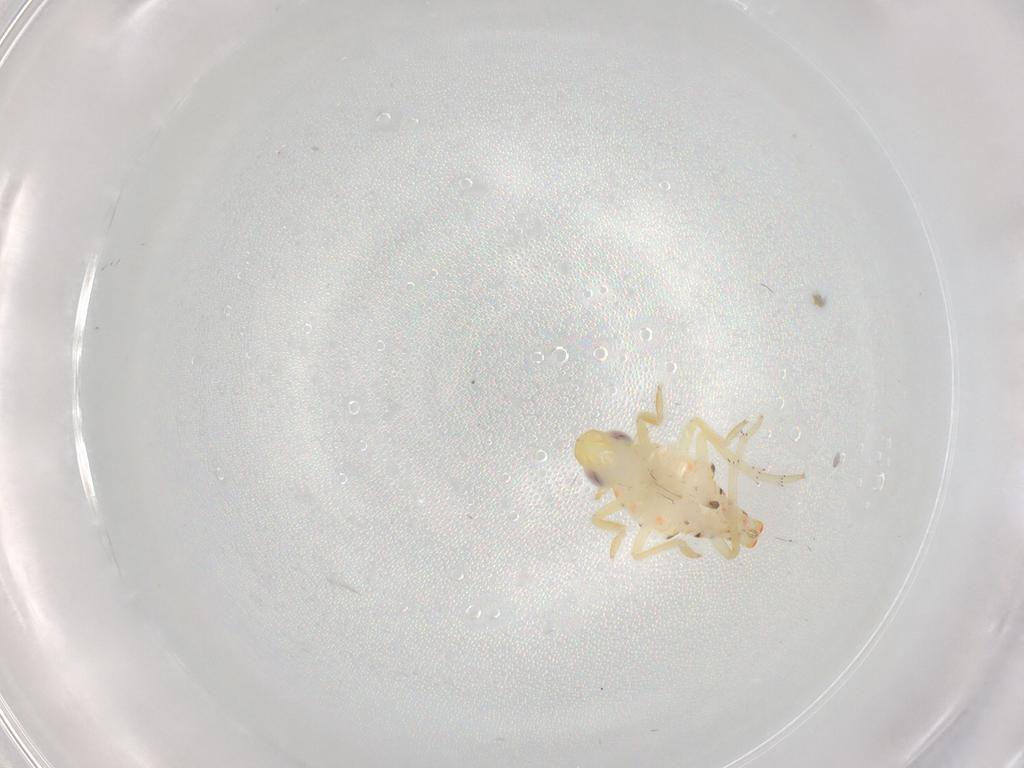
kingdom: Animalia
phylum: Arthropoda
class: Insecta
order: Hemiptera
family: Tropiduchidae
